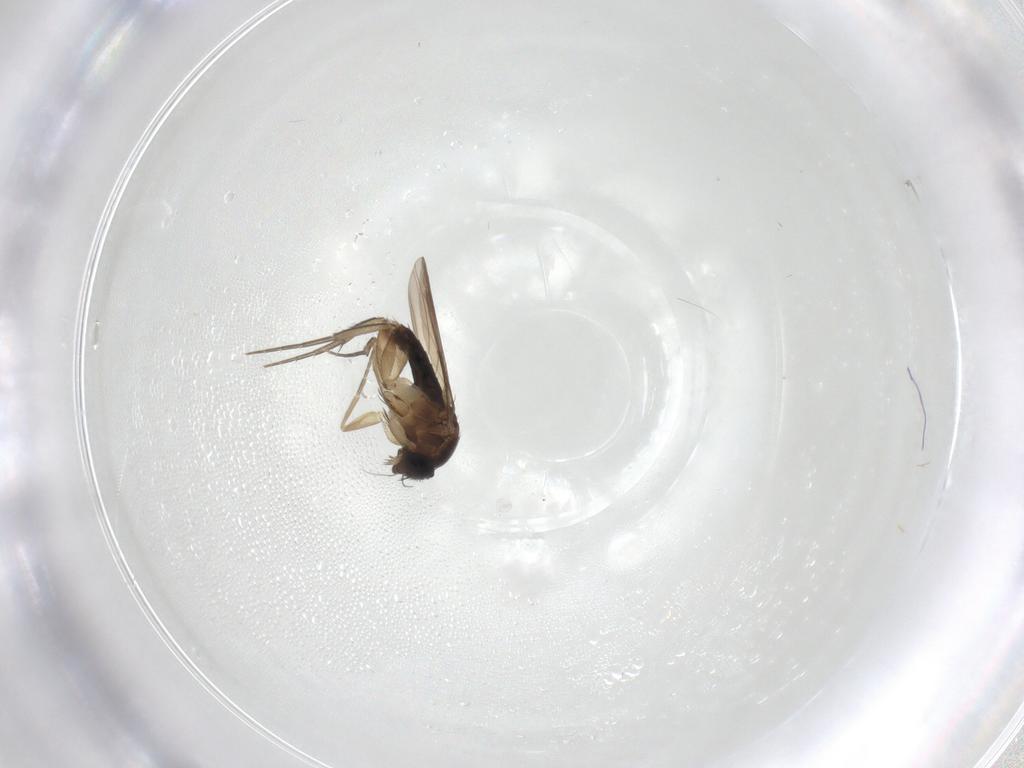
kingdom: Animalia
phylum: Arthropoda
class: Insecta
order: Diptera
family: Phoridae
